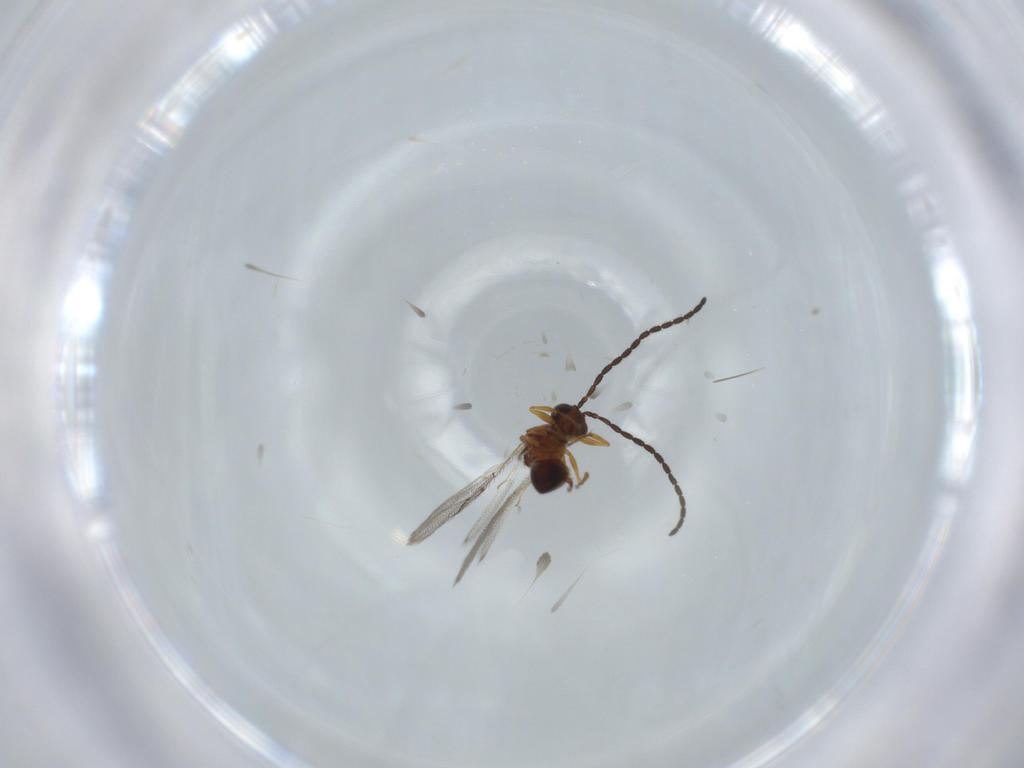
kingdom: Animalia
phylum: Arthropoda
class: Insecta
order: Hymenoptera
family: Figitidae
